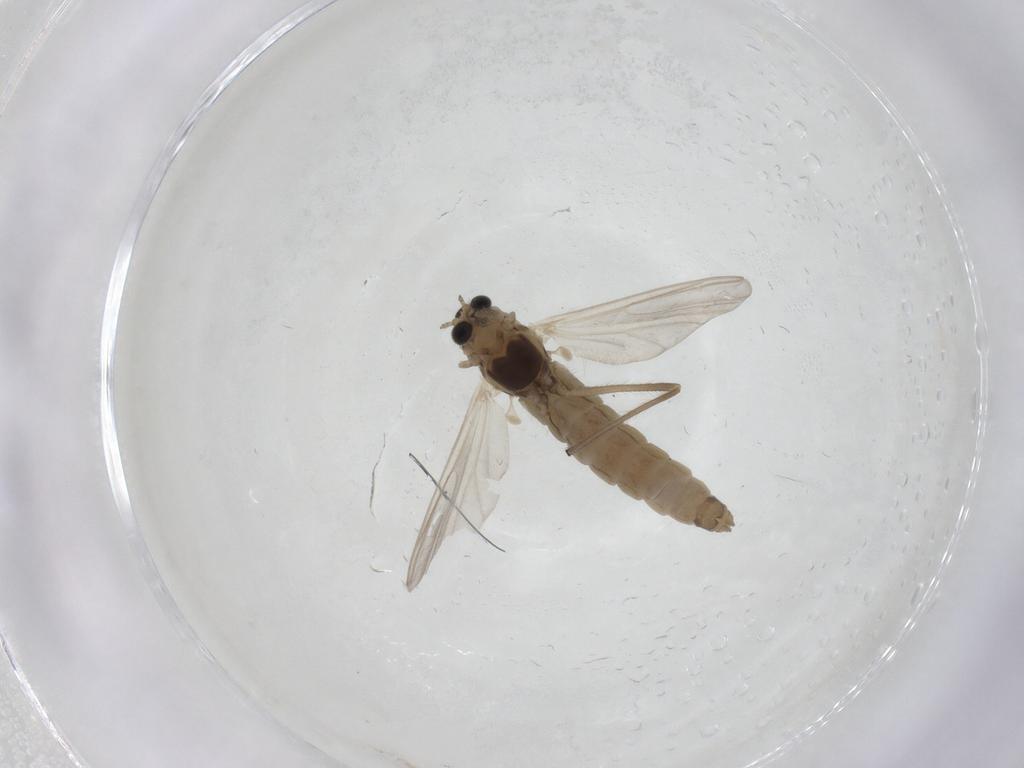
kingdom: Animalia
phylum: Arthropoda
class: Insecta
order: Diptera
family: Chironomidae
